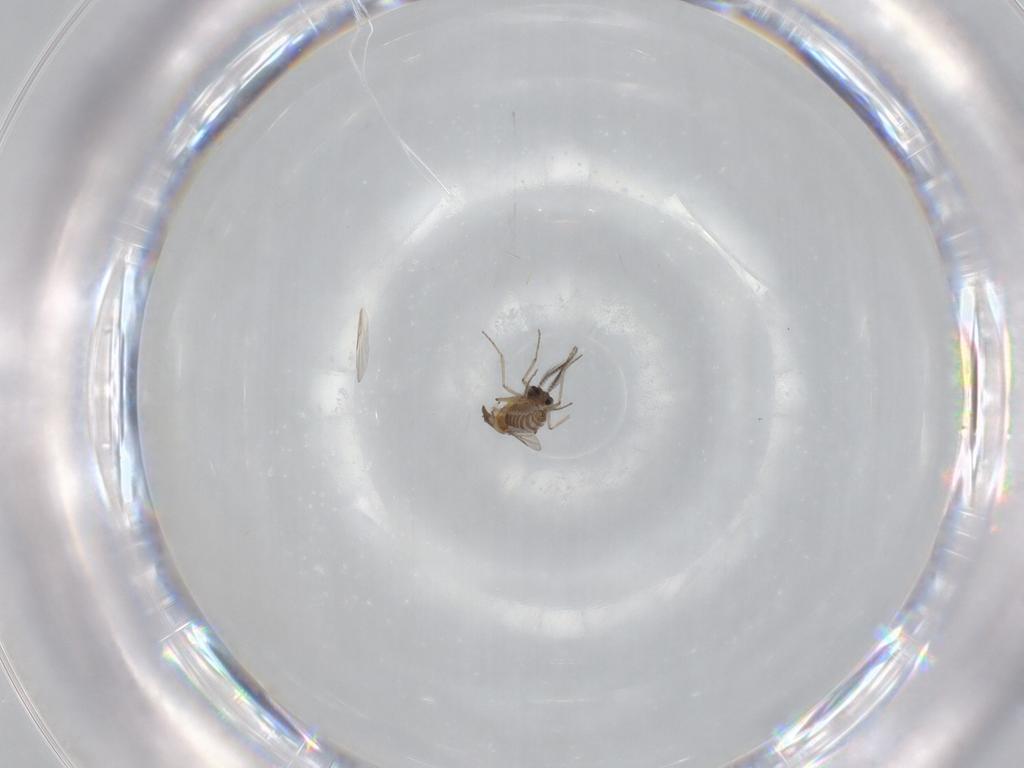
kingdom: Animalia
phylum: Arthropoda
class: Insecta
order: Diptera
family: Ceratopogonidae
